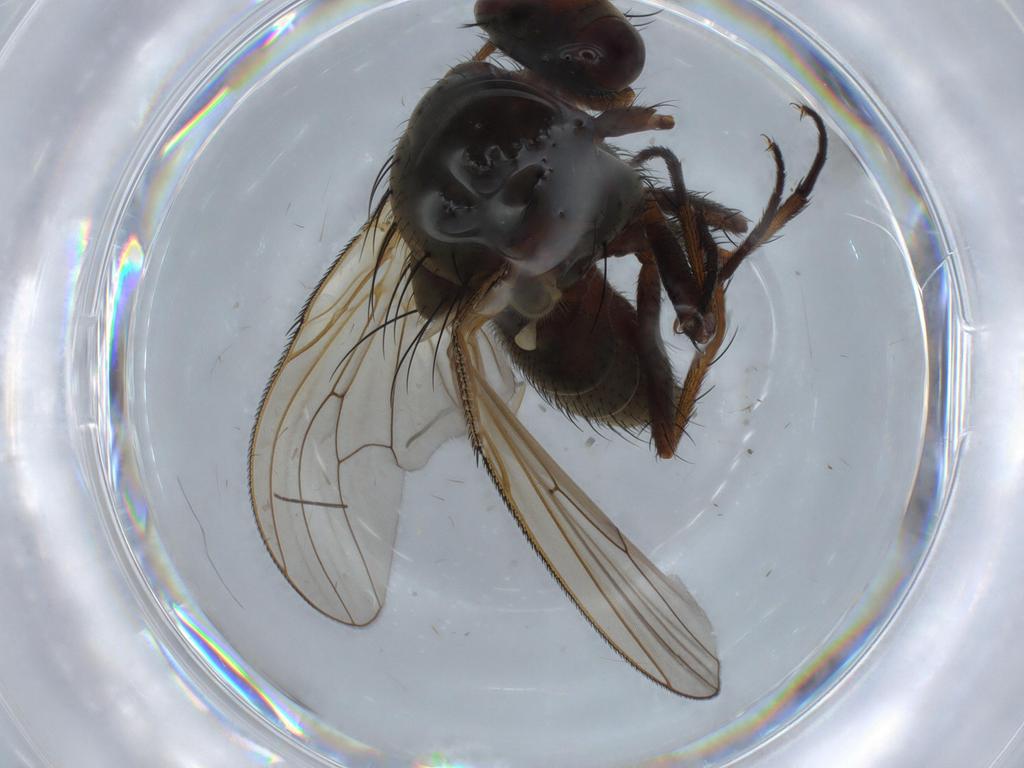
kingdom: Animalia
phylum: Arthropoda
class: Insecta
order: Diptera
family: Anthomyiidae
